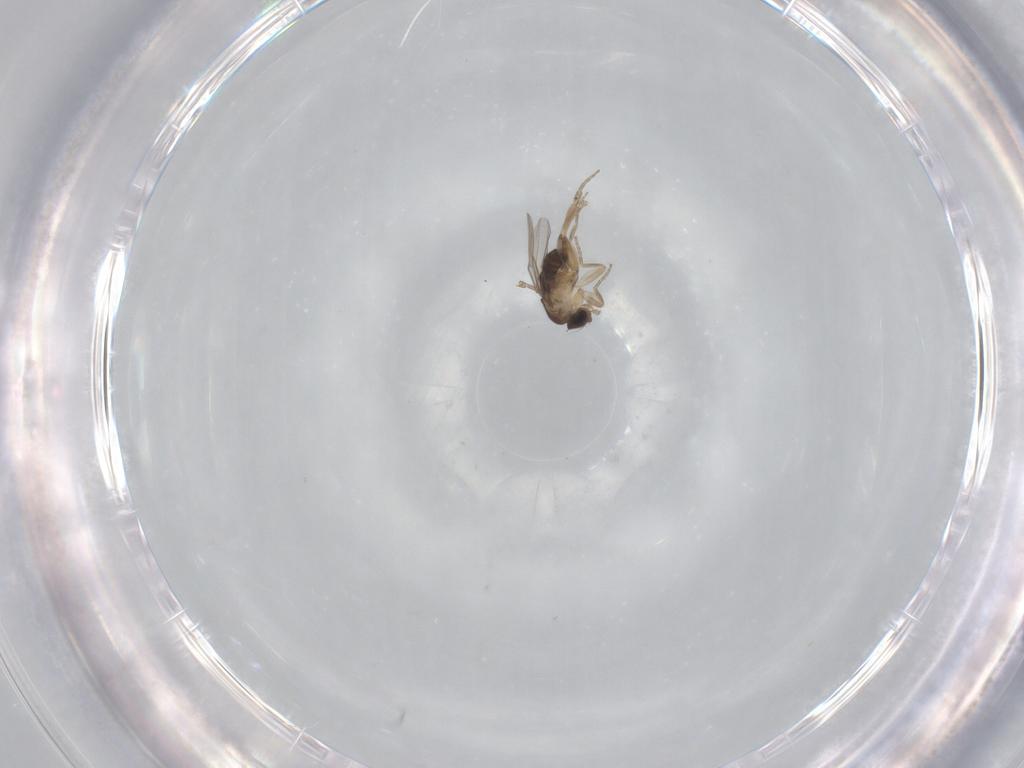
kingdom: Animalia
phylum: Arthropoda
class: Insecta
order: Diptera
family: Phoridae
